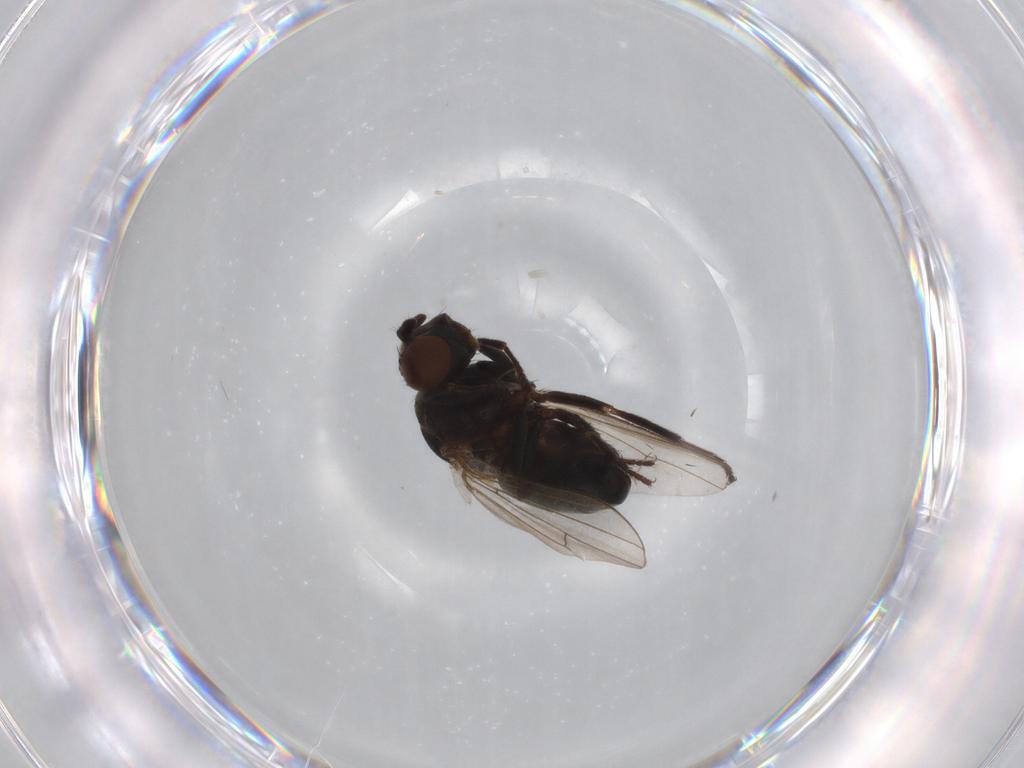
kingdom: Animalia
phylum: Arthropoda
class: Insecta
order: Diptera
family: Ephydridae
